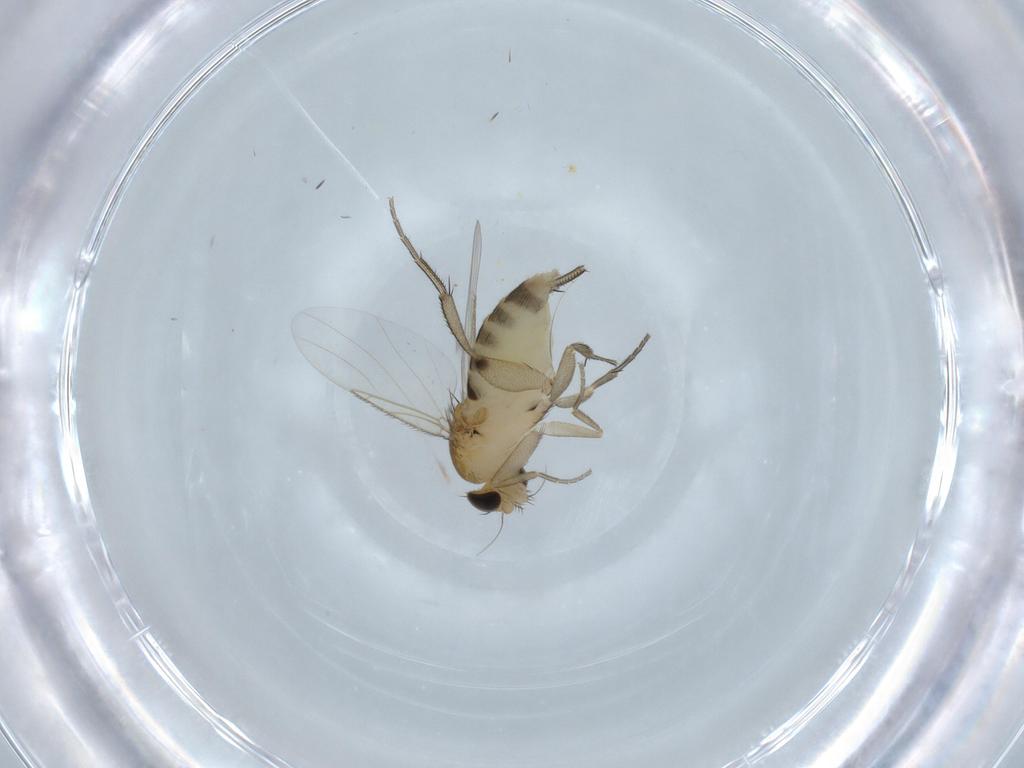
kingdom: Animalia
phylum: Arthropoda
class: Insecta
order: Diptera
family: Phoridae
